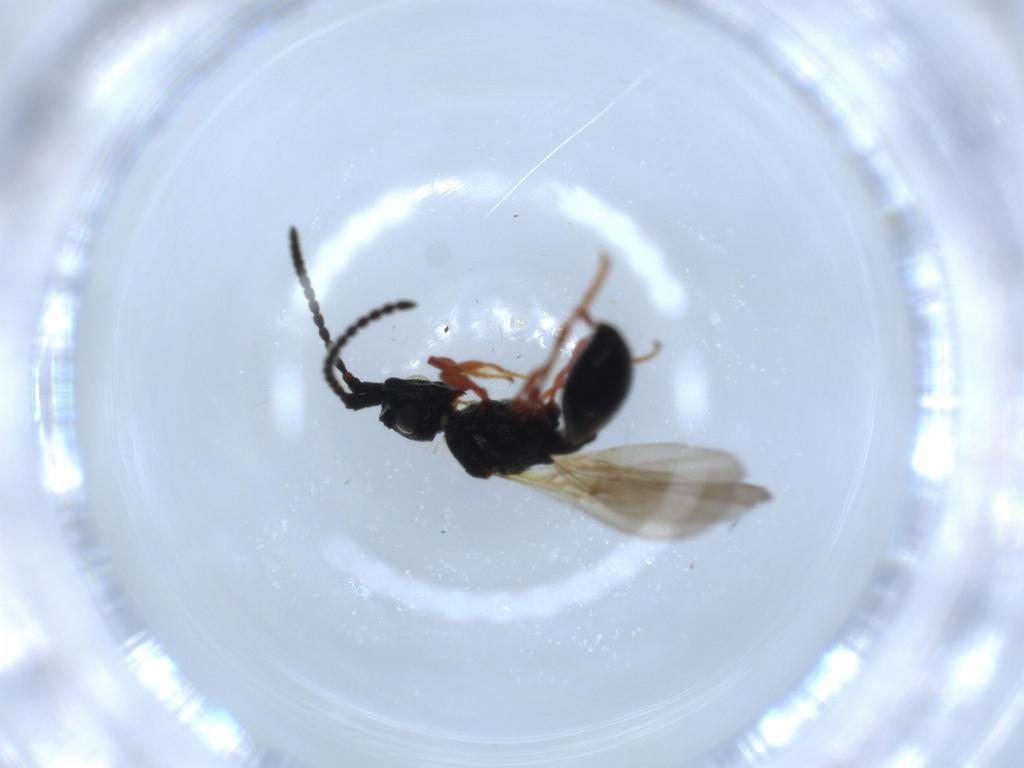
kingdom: Animalia
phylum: Arthropoda
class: Insecta
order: Hymenoptera
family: Diapriidae
